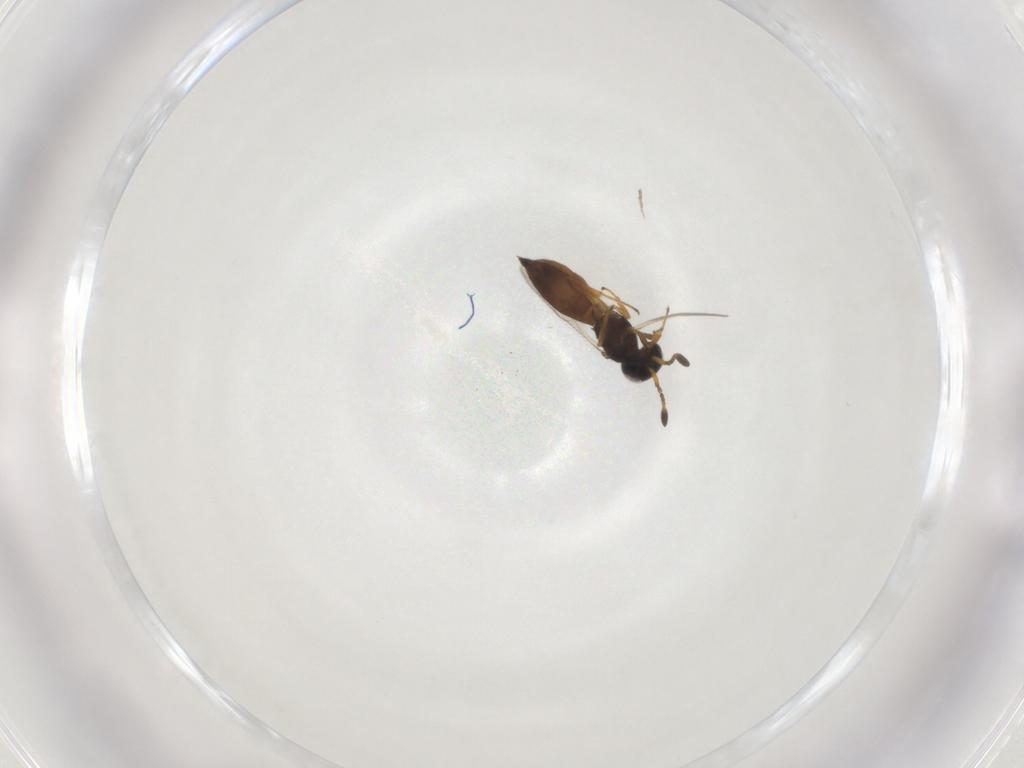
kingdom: Animalia
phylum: Arthropoda
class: Insecta
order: Hymenoptera
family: Scelionidae
